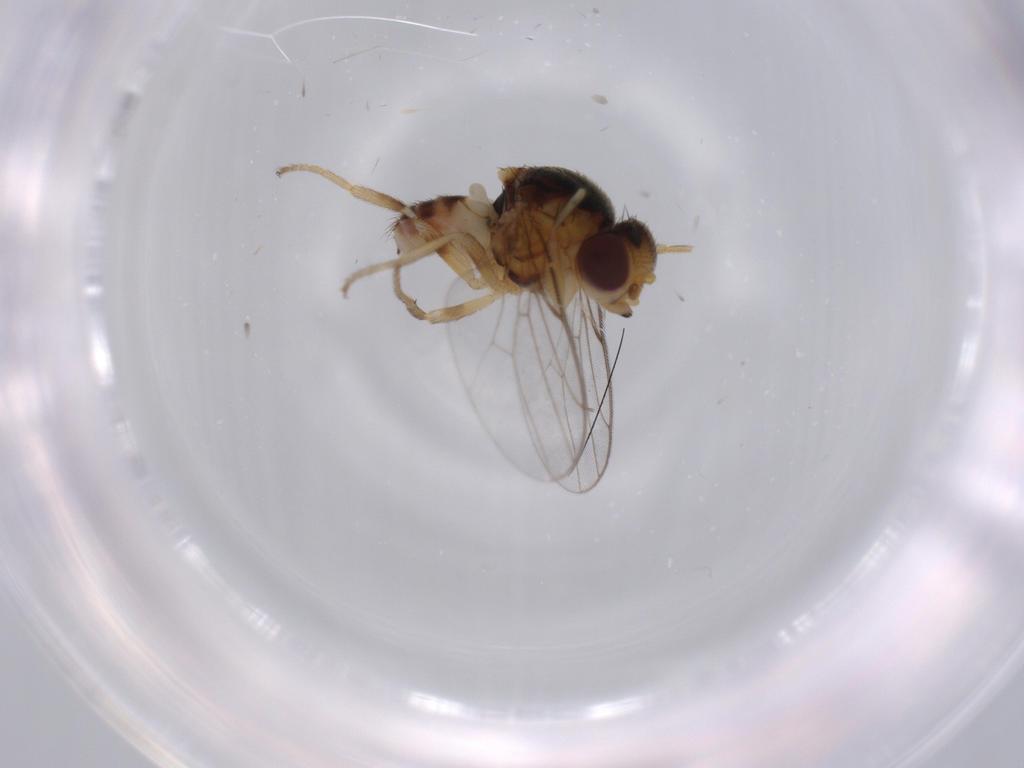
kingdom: Animalia
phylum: Arthropoda
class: Insecta
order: Diptera
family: Chloropidae
